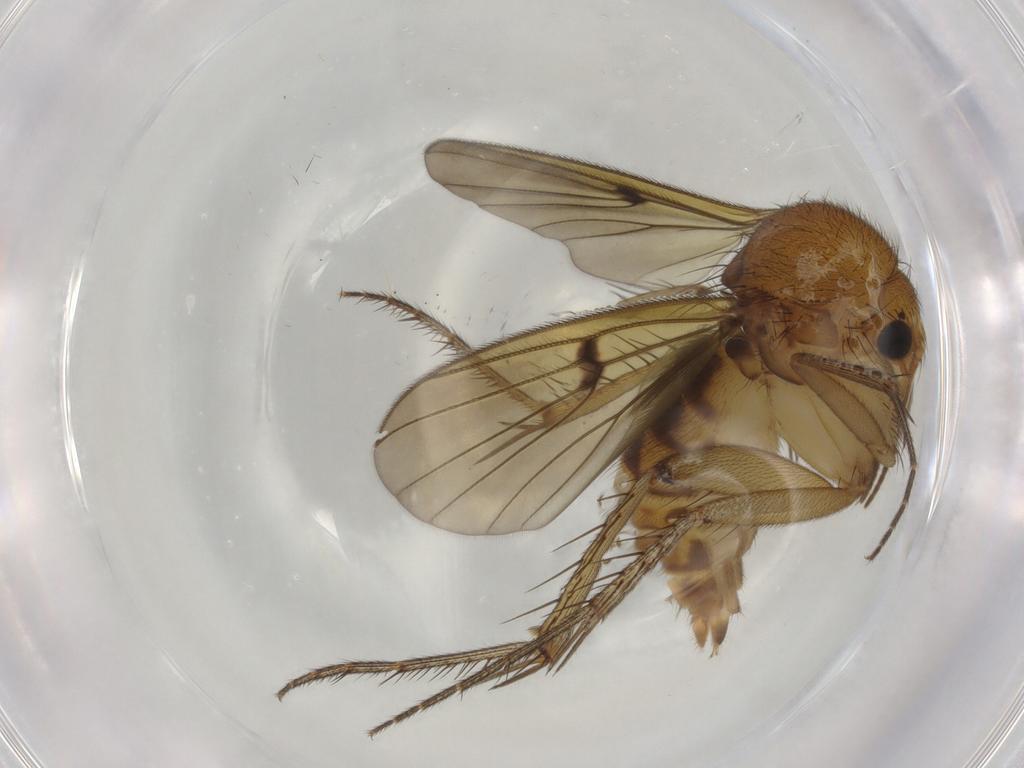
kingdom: Animalia
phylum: Arthropoda
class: Insecta
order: Diptera
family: Mycetophilidae
